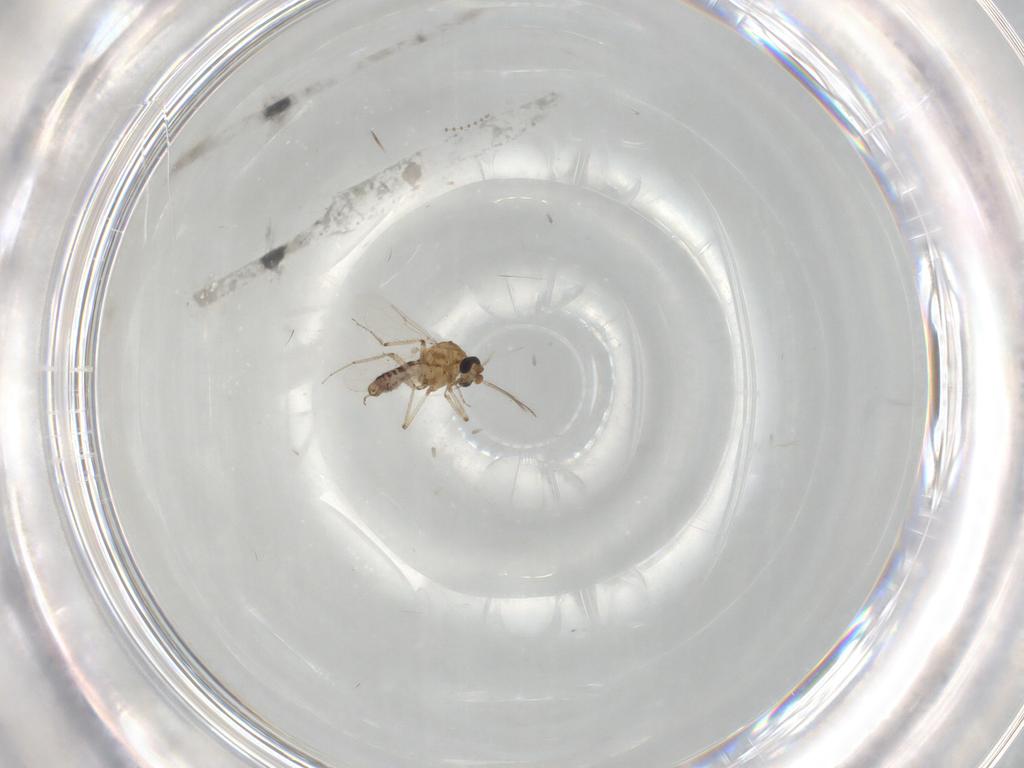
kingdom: Animalia
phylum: Arthropoda
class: Insecta
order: Diptera
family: Ceratopogonidae
